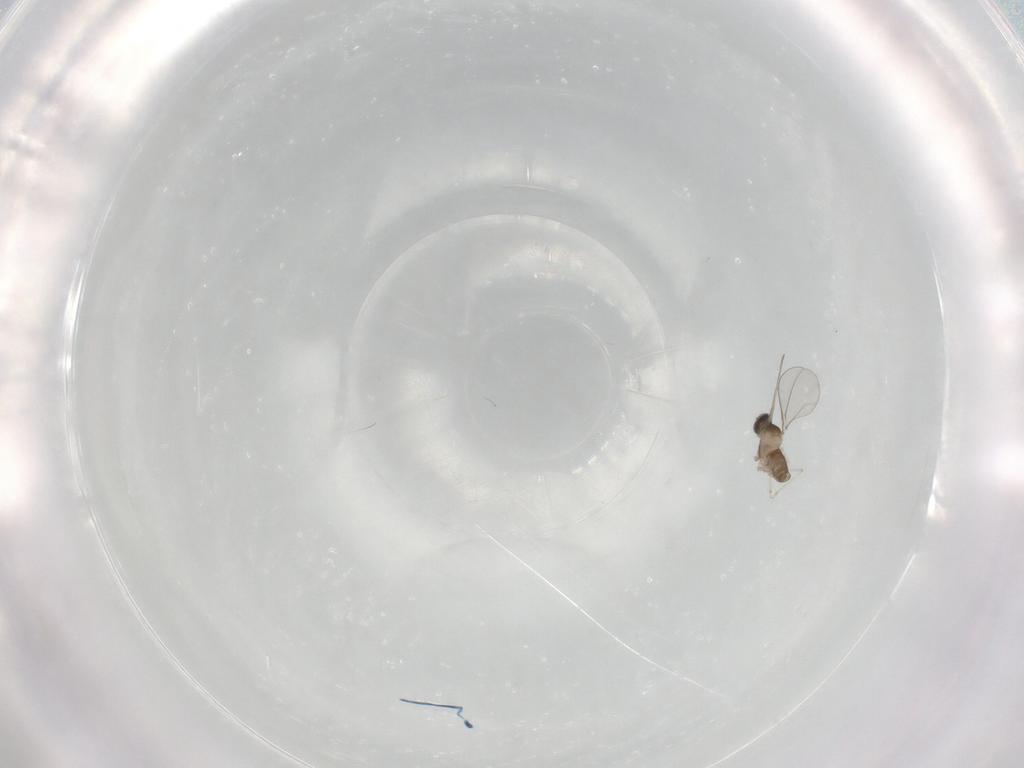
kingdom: Animalia
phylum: Arthropoda
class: Insecta
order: Diptera
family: Cecidomyiidae
